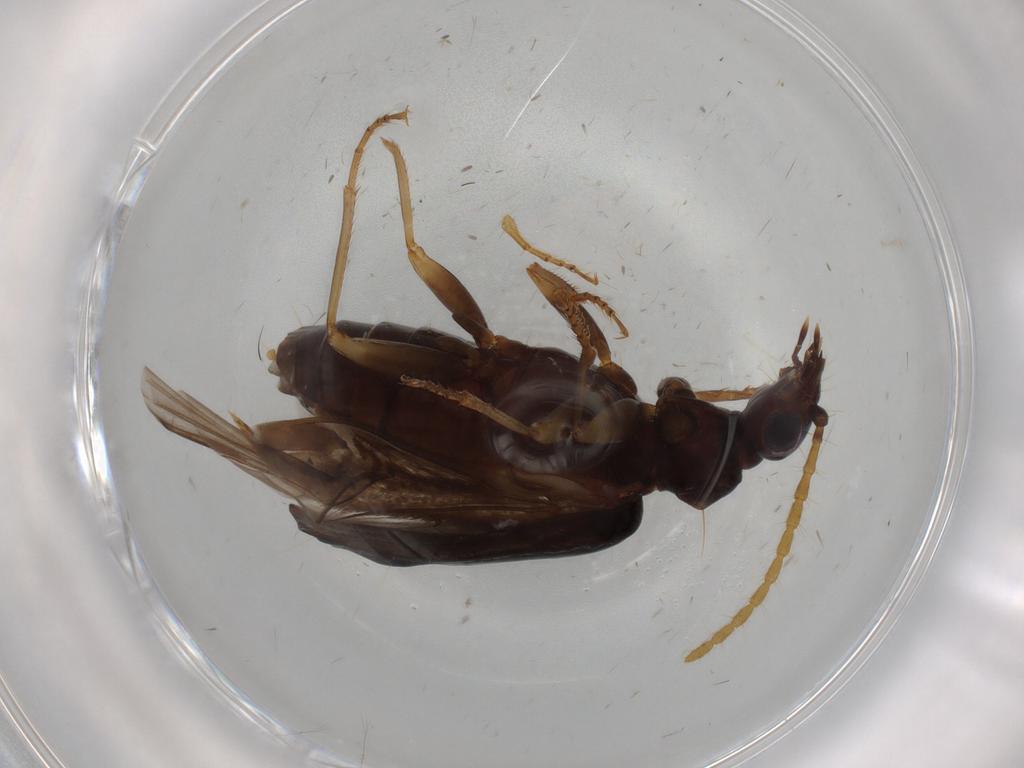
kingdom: Animalia
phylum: Arthropoda
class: Insecta
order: Coleoptera
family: Carabidae
